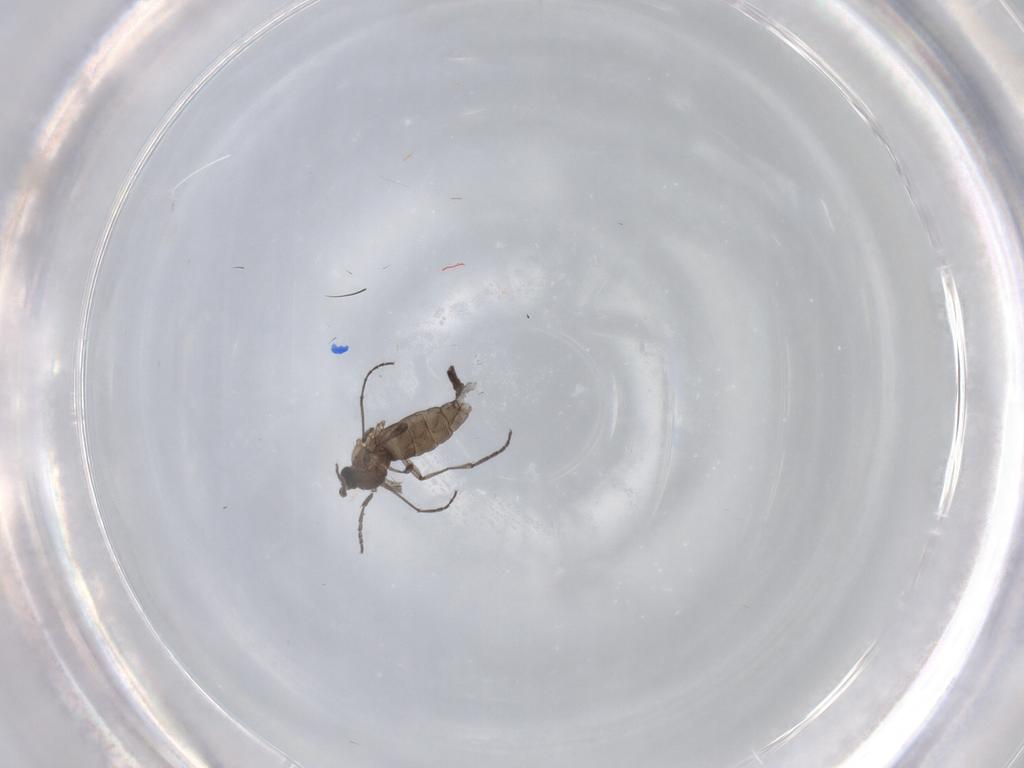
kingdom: Animalia
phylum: Arthropoda
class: Insecta
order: Diptera
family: Sciaridae
